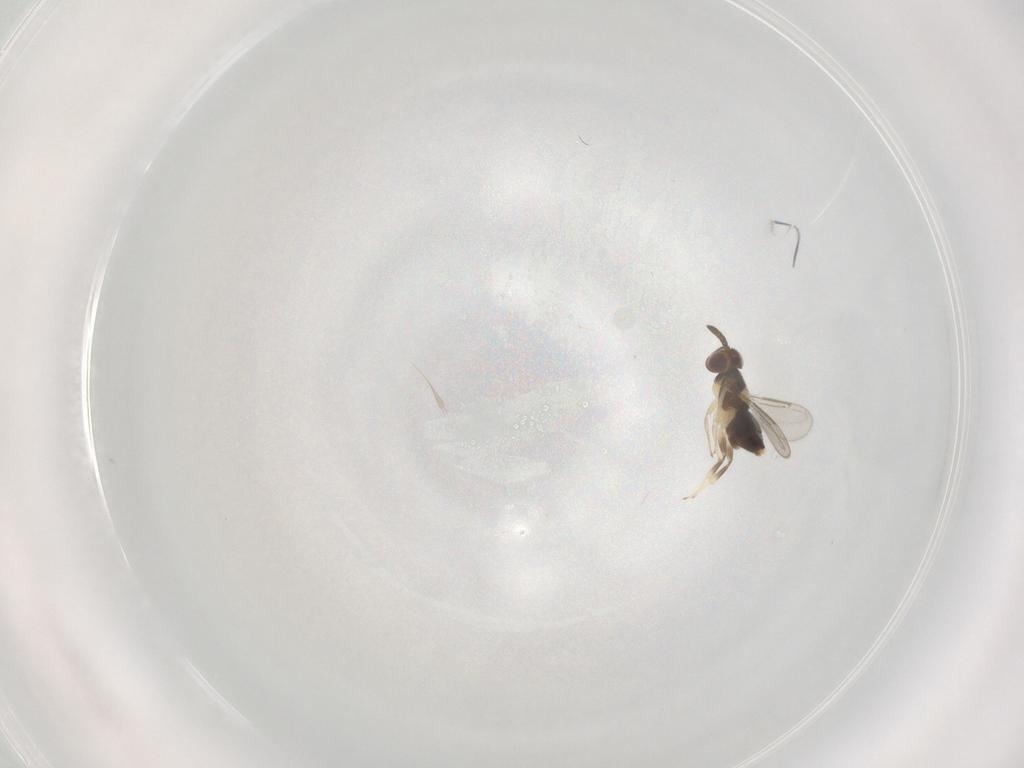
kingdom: Animalia
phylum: Arthropoda
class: Insecta
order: Hymenoptera
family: Aphelinidae
